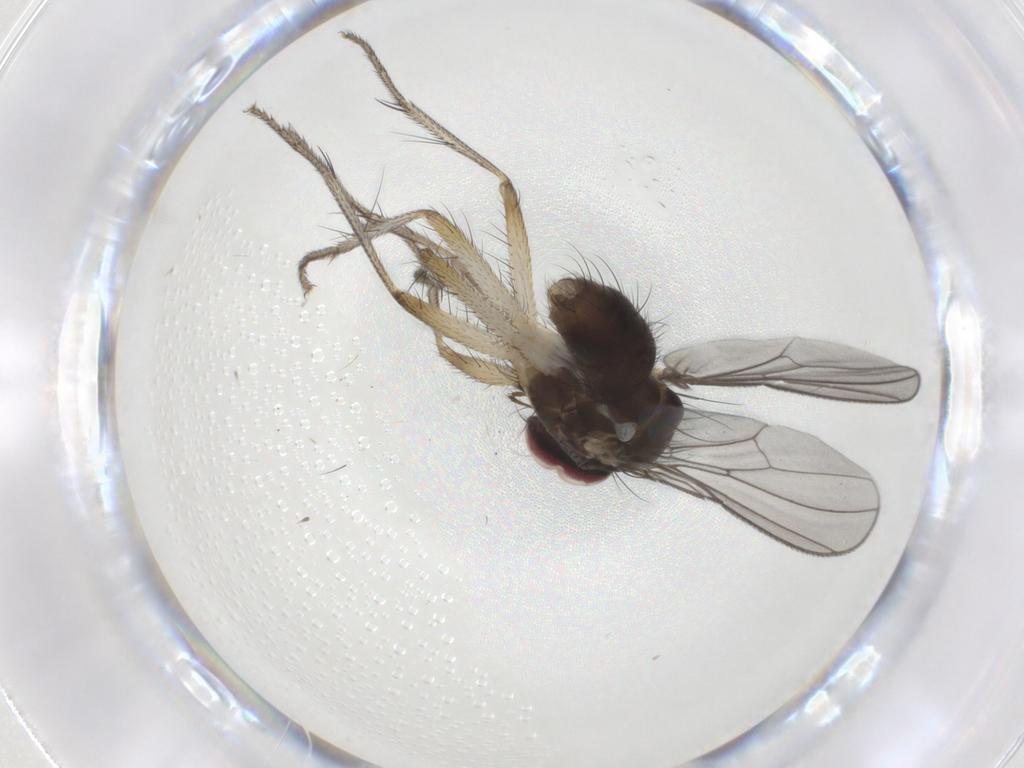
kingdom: Animalia
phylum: Arthropoda
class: Insecta
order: Diptera
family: Anthomyiidae
